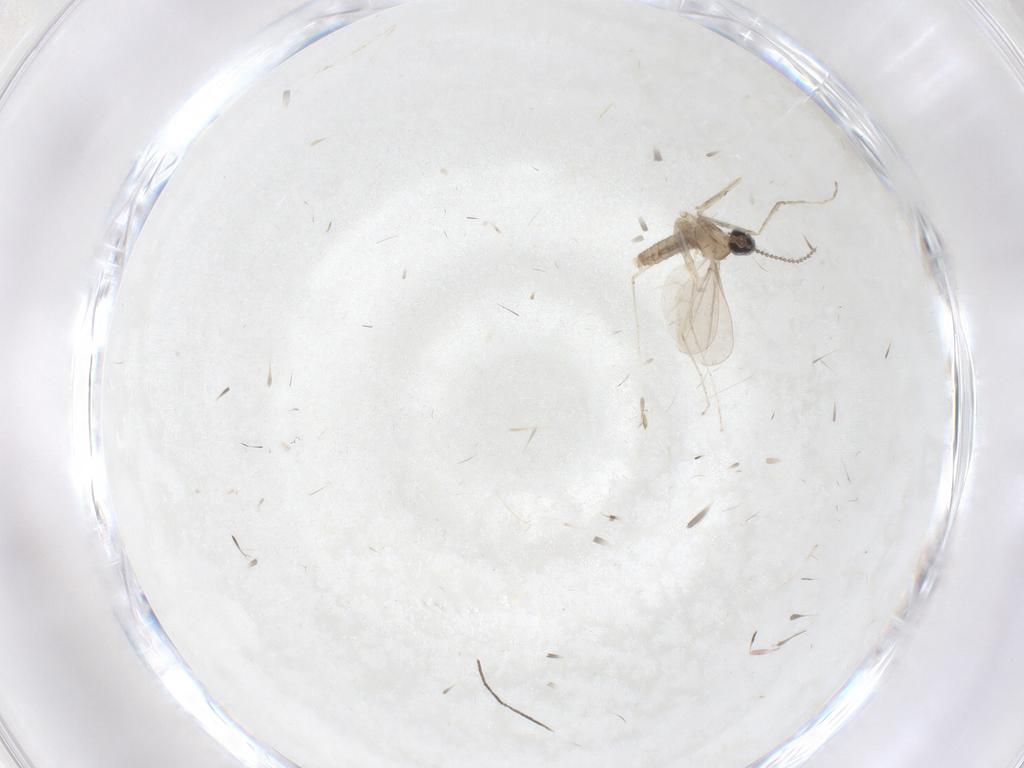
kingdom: Animalia
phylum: Arthropoda
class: Insecta
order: Diptera
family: Cecidomyiidae
